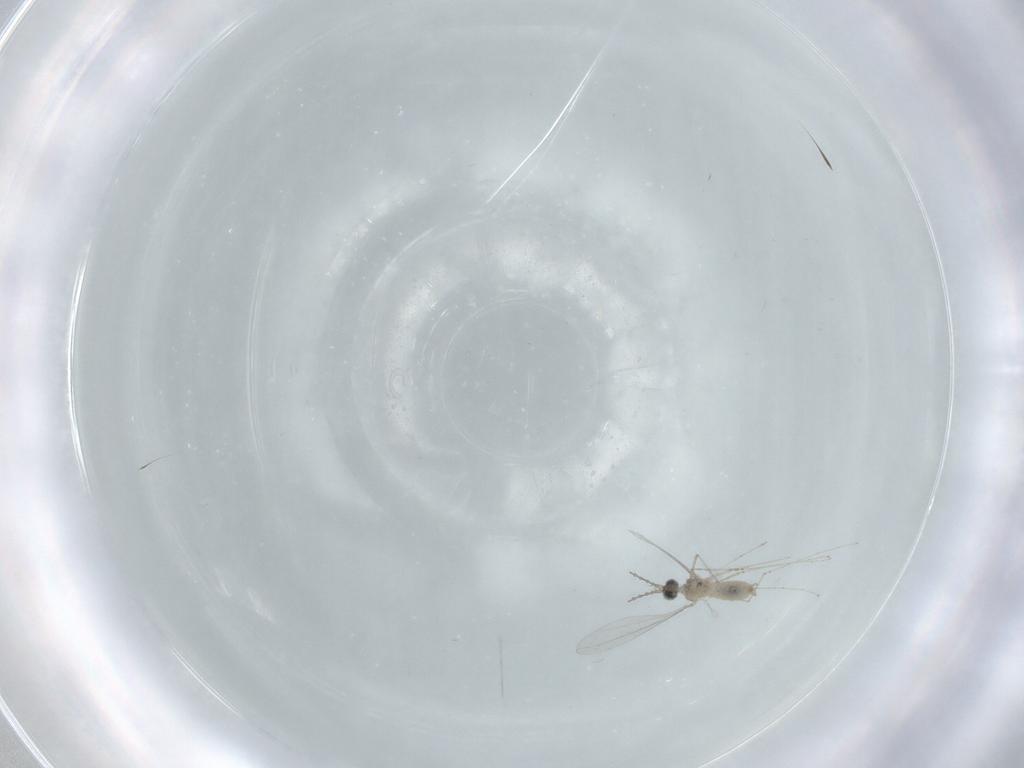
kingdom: Animalia
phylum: Arthropoda
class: Insecta
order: Diptera
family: Cecidomyiidae
